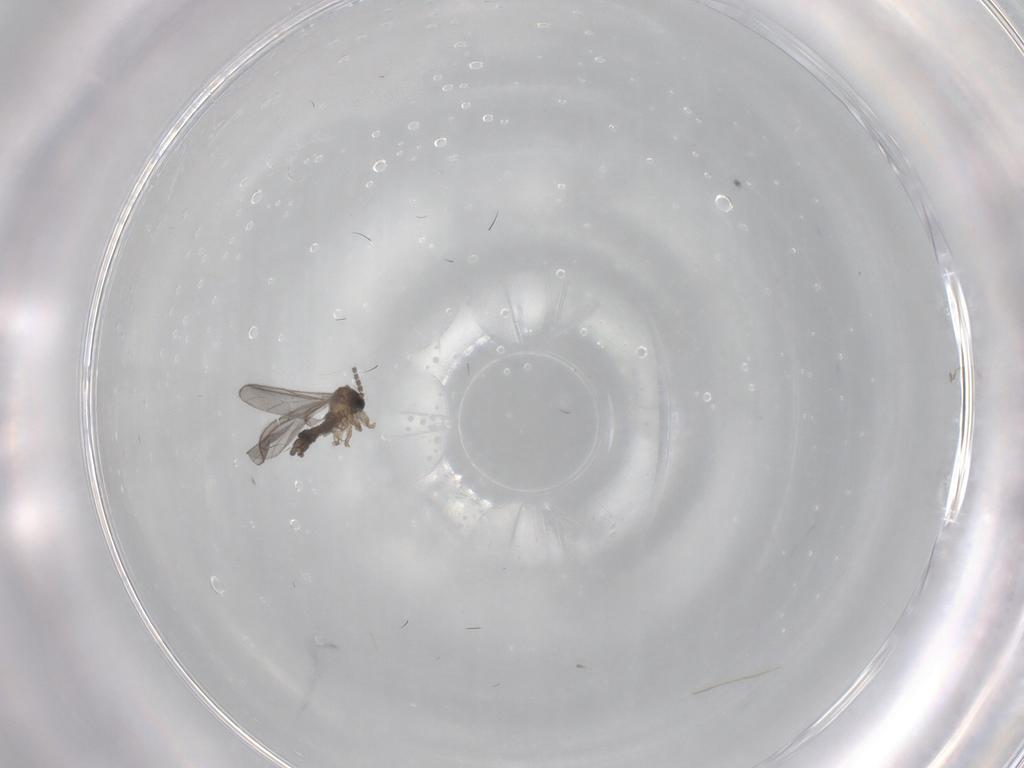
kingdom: Animalia
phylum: Arthropoda
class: Insecta
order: Diptera
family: Sciaridae
